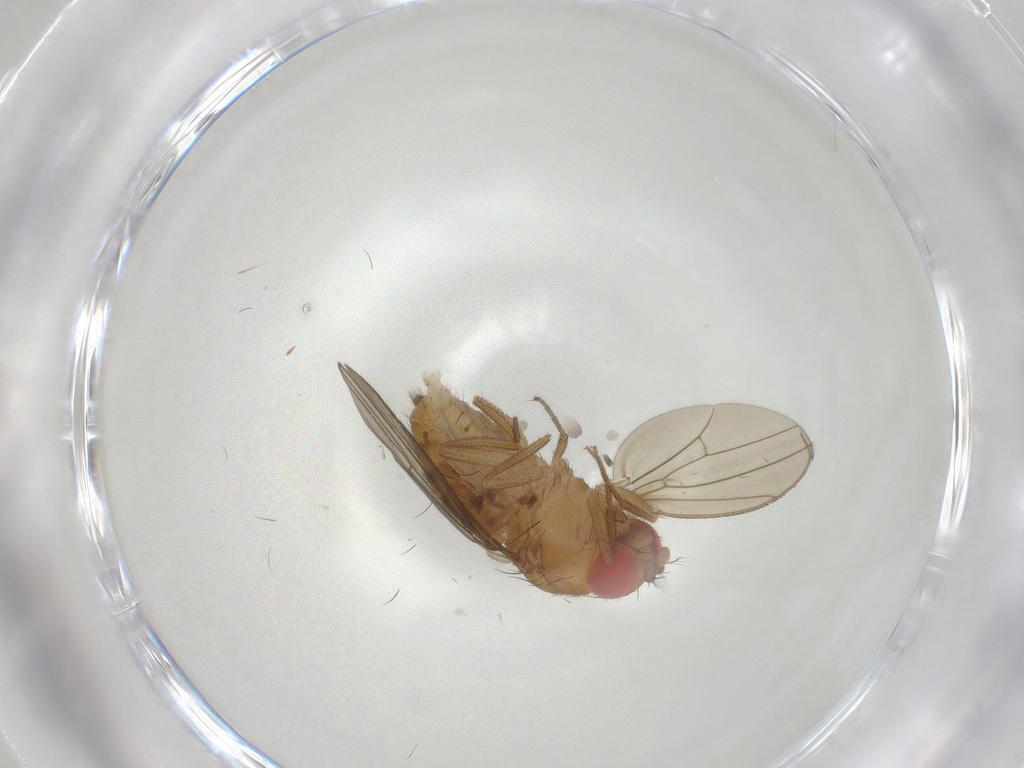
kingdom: Animalia
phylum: Arthropoda
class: Insecta
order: Diptera
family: Drosophilidae
